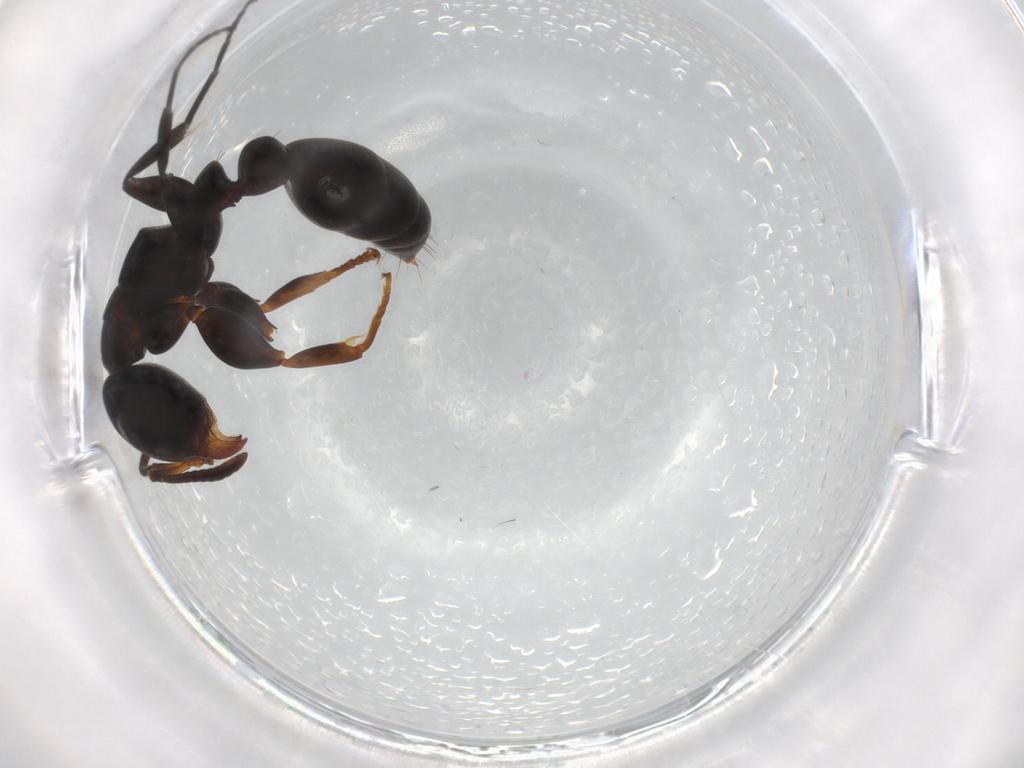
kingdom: Animalia
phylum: Arthropoda
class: Insecta
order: Hymenoptera
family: Formicidae
